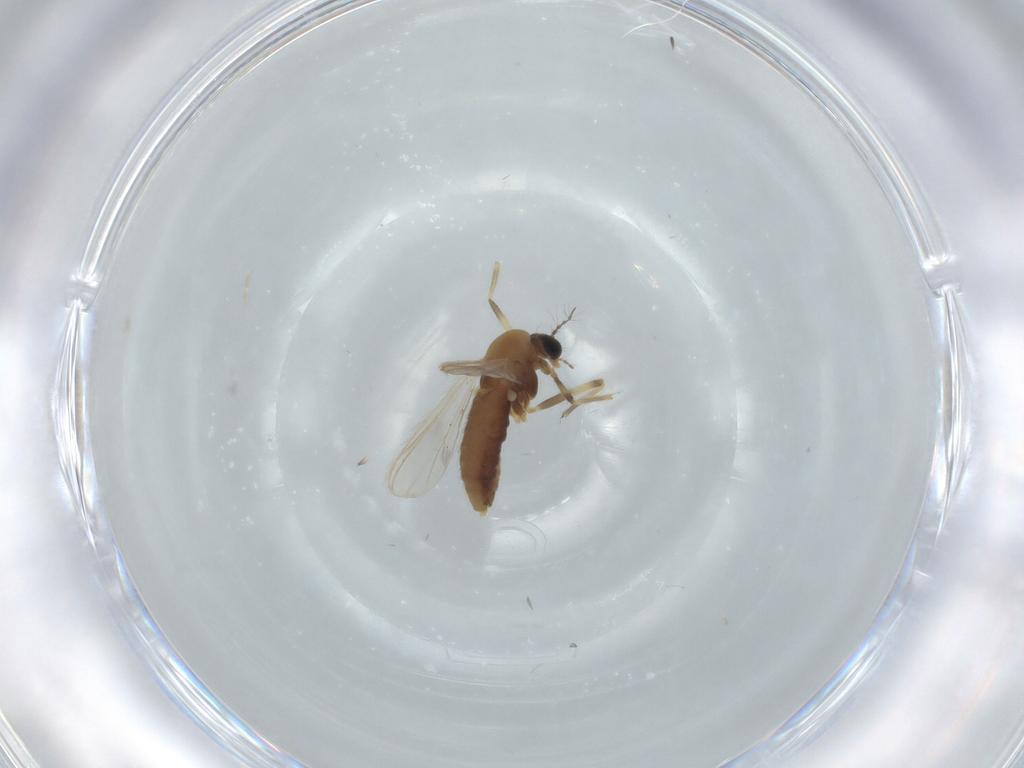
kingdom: Animalia
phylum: Arthropoda
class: Insecta
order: Diptera
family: Chironomidae
